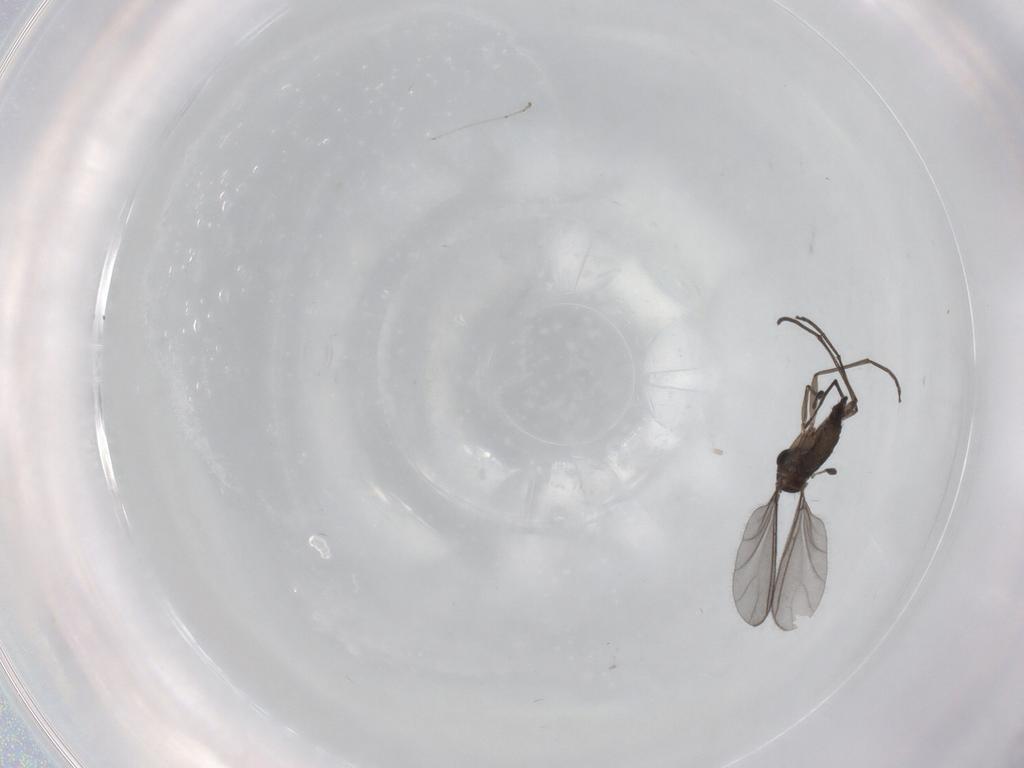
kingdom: Animalia
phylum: Arthropoda
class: Insecta
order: Diptera
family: Sciaridae
